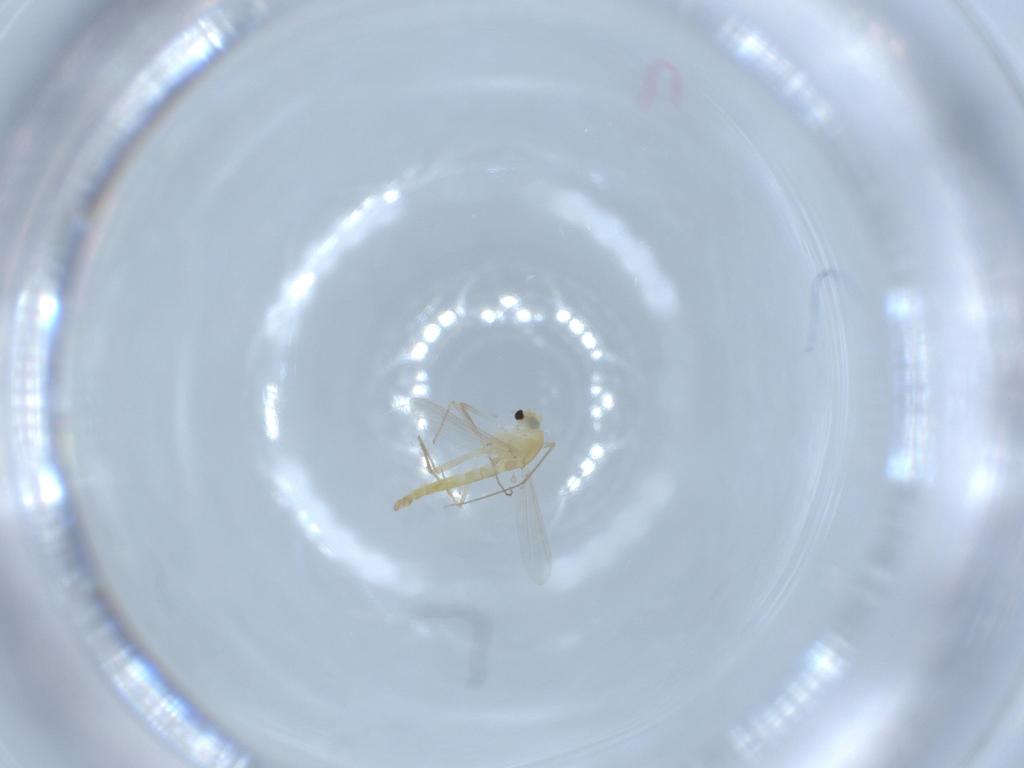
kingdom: Animalia
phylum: Arthropoda
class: Insecta
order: Diptera
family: Chironomidae
